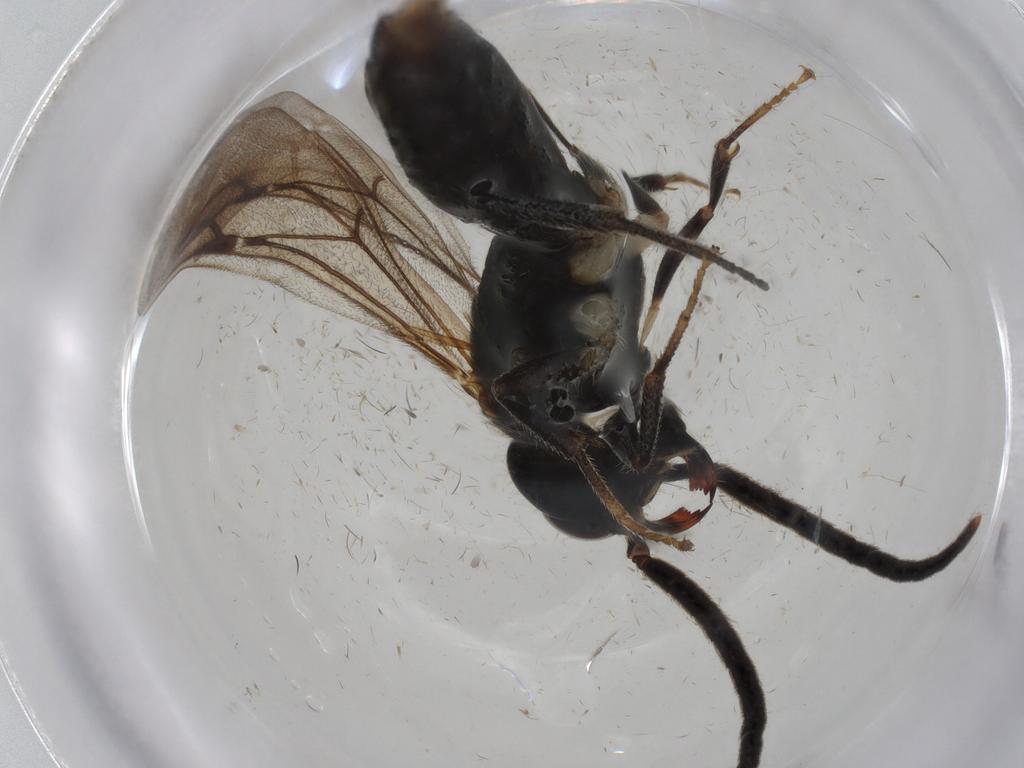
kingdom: Animalia
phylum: Arthropoda
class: Insecta
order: Hymenoptera
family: Bethylidae
